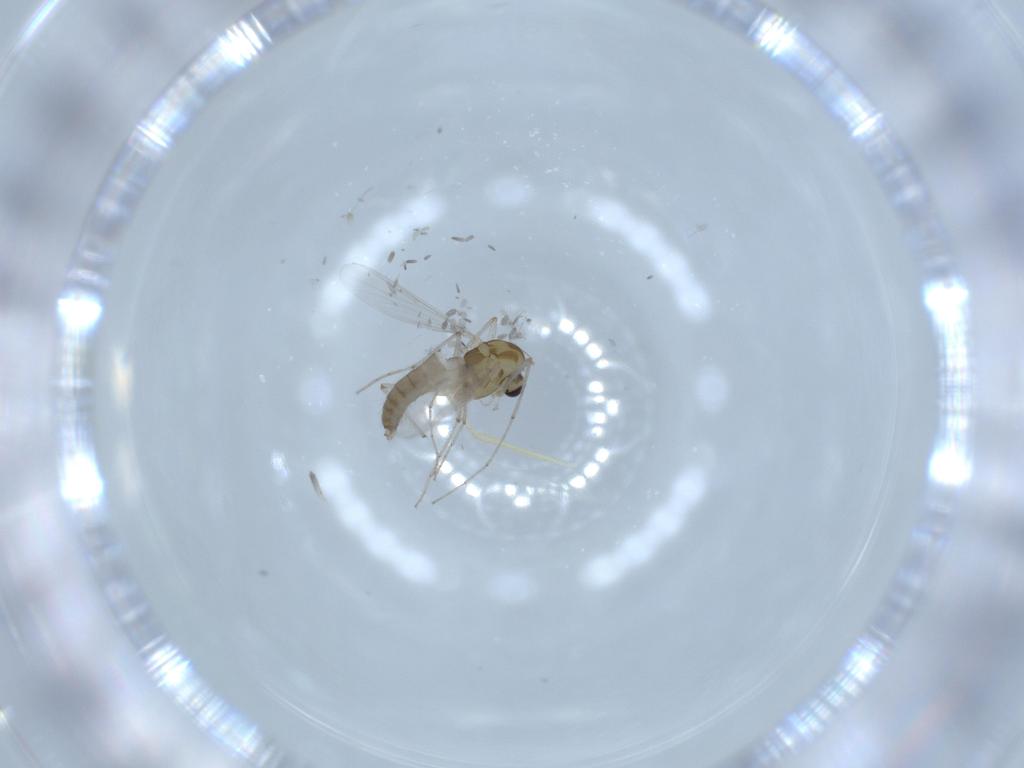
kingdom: Animalia
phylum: Arthropoda
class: Insecta
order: Diptera
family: Chironomidae
